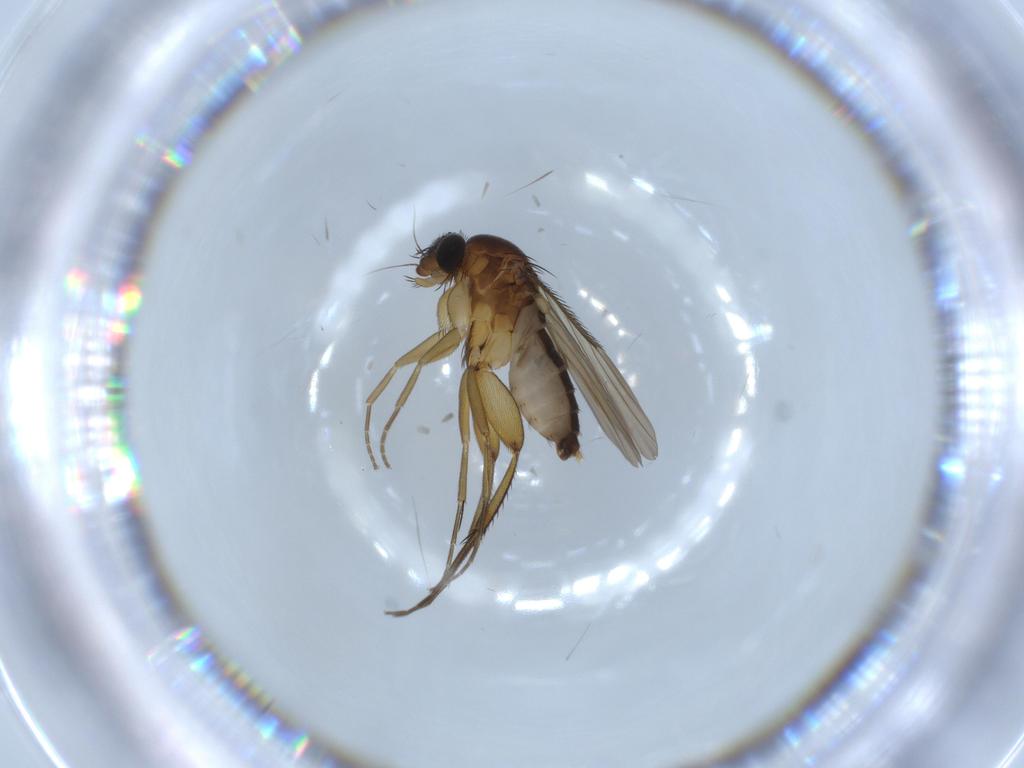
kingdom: Animalia
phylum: Arthropoda
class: Insecta
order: Diptera
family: Phoridae
